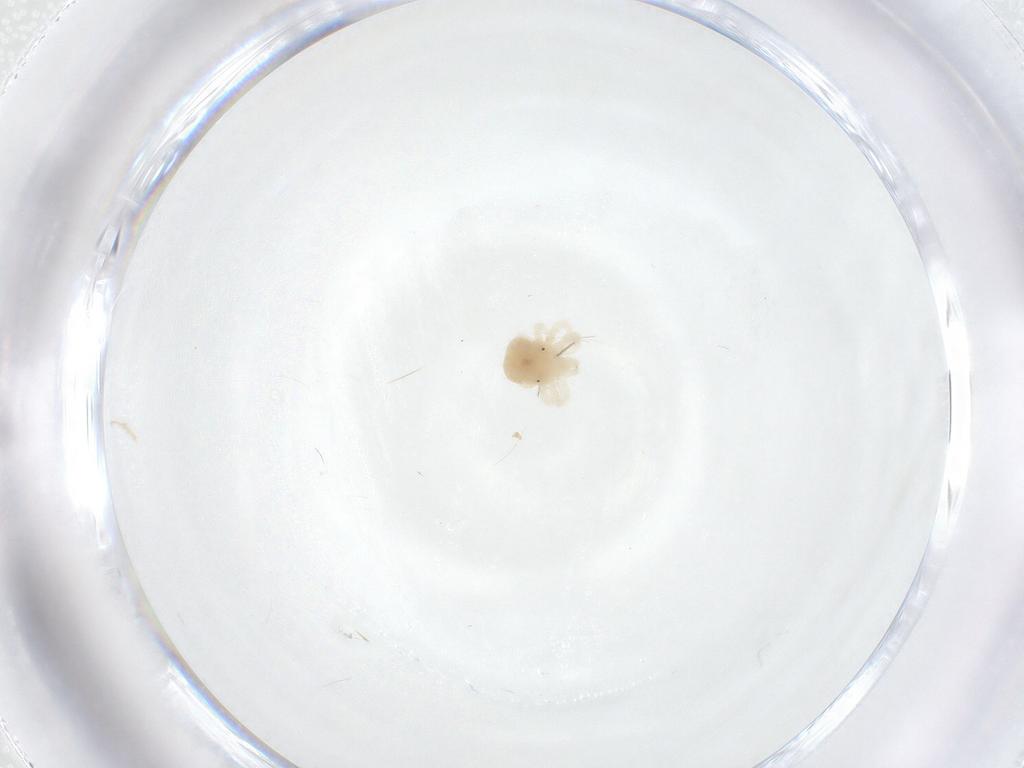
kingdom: Animalia
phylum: Arthropoda
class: Arachnida
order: Trombidiformes
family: Anystidae
